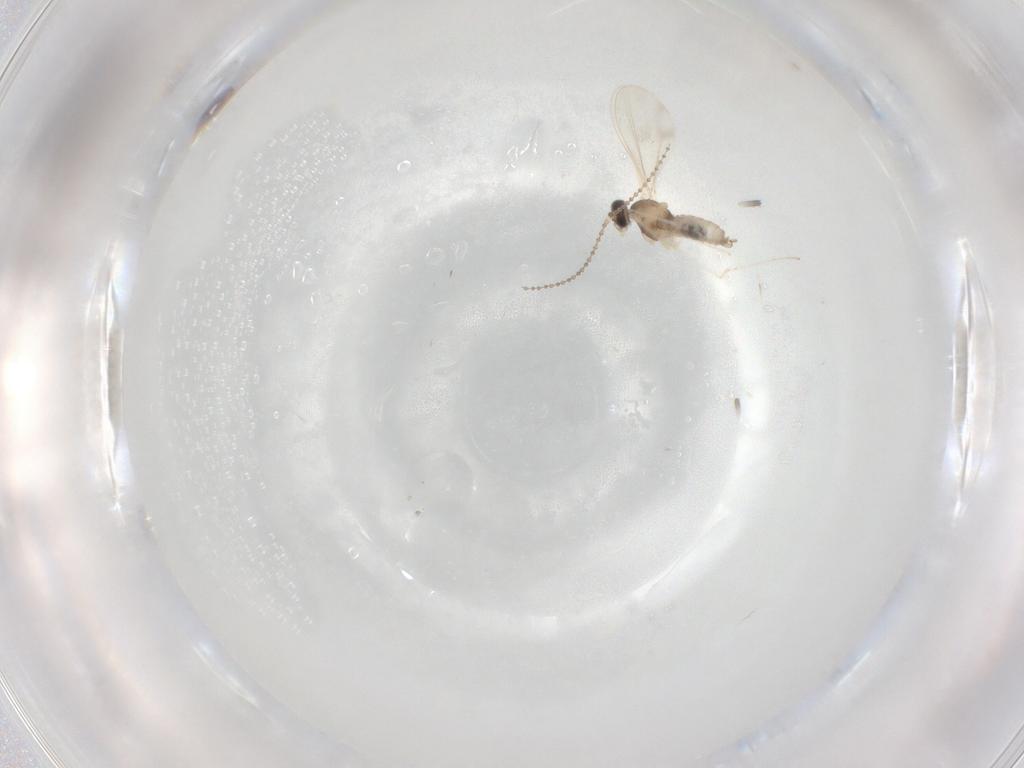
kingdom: Animalia
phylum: Arthropoda
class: Insecta
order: Diptera
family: Cecidomyiidae
